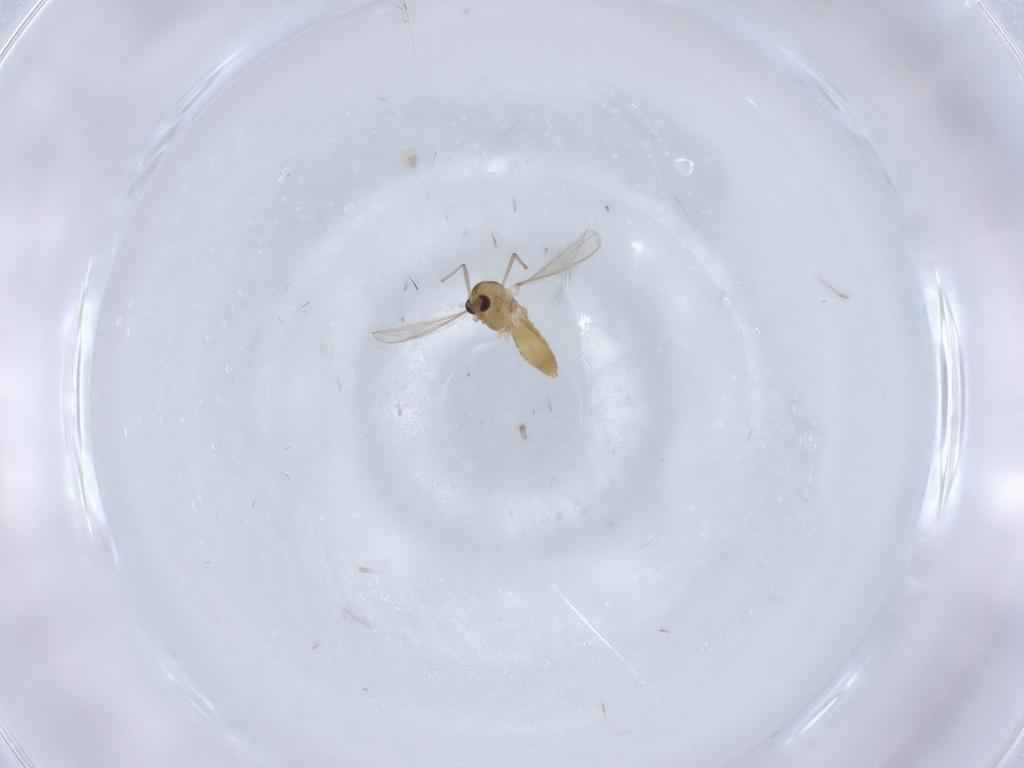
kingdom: Animalia
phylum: Arthropoda
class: Insecta
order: Diptera
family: Chironomidae
